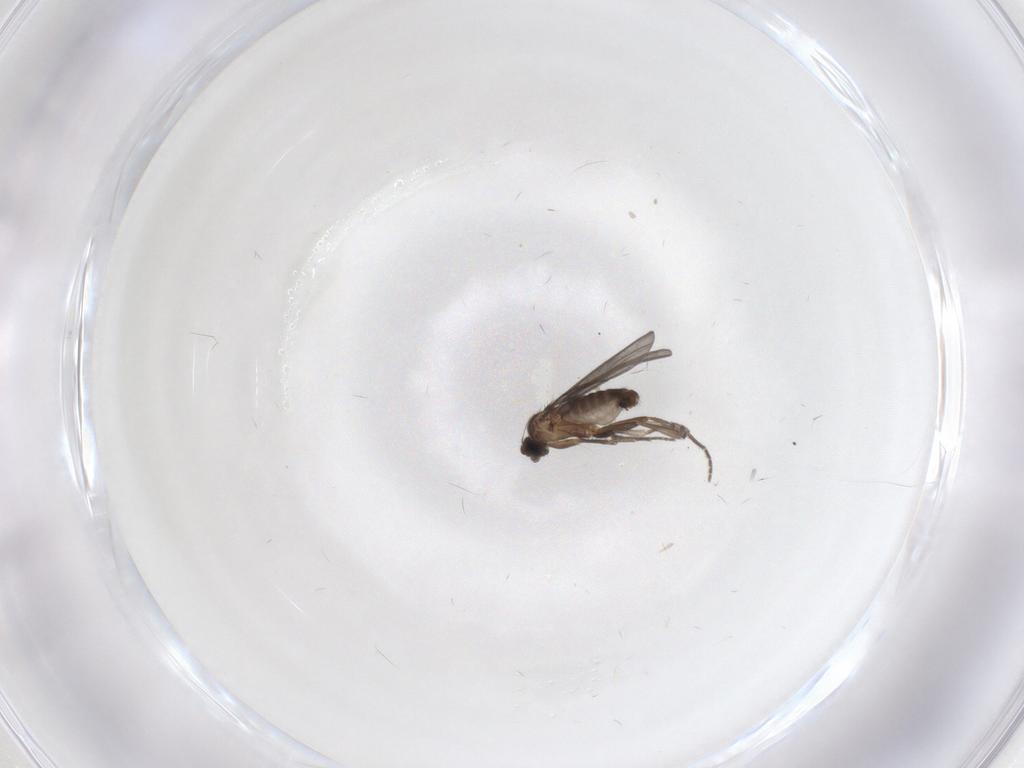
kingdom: Animalia
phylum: Arthropoda
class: Insecta
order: Diptera
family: Phoridae
